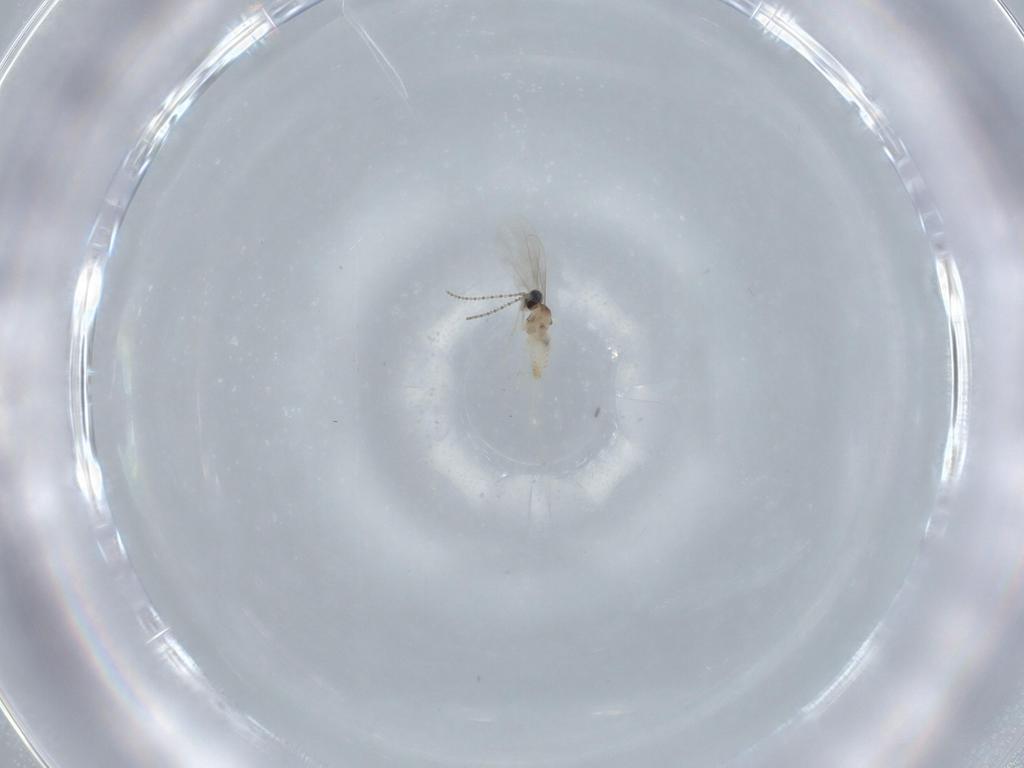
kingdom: Animalia
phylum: Arthropoda
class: Insecta
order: Diptera
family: Cecidomyiidae
